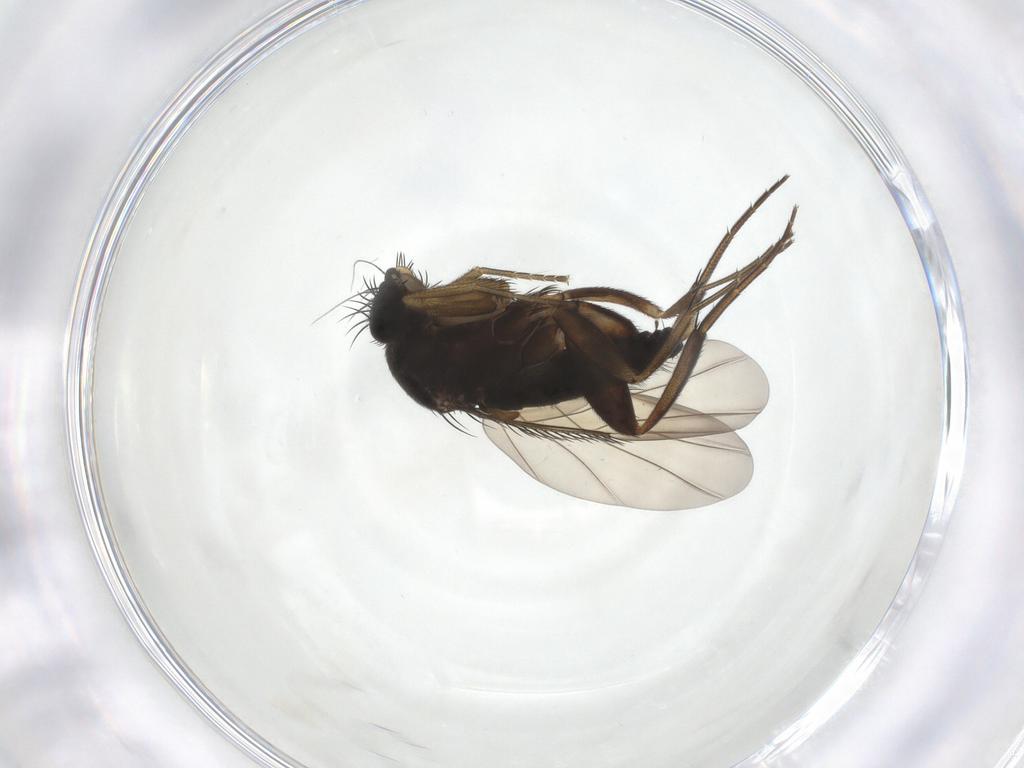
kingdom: Animalia
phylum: Arthropoda
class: Insecta
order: Diptera
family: Phoridae
